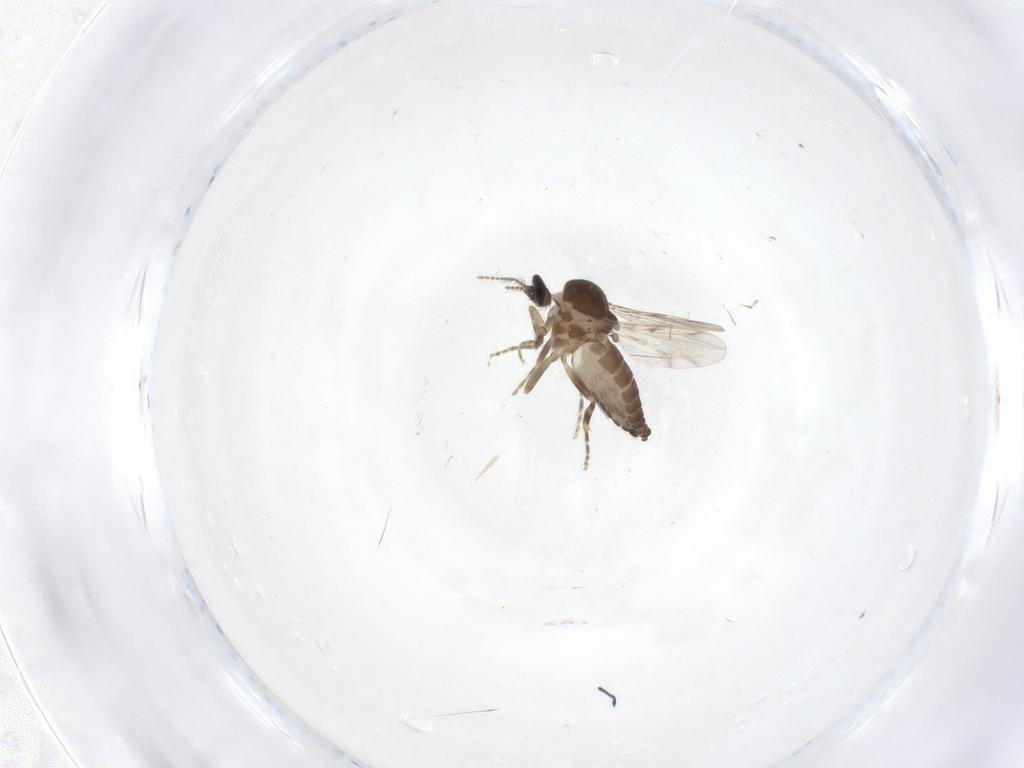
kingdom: Animalia
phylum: Arthropoda
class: Insecta
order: Diptera
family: Ceratopogonidae
